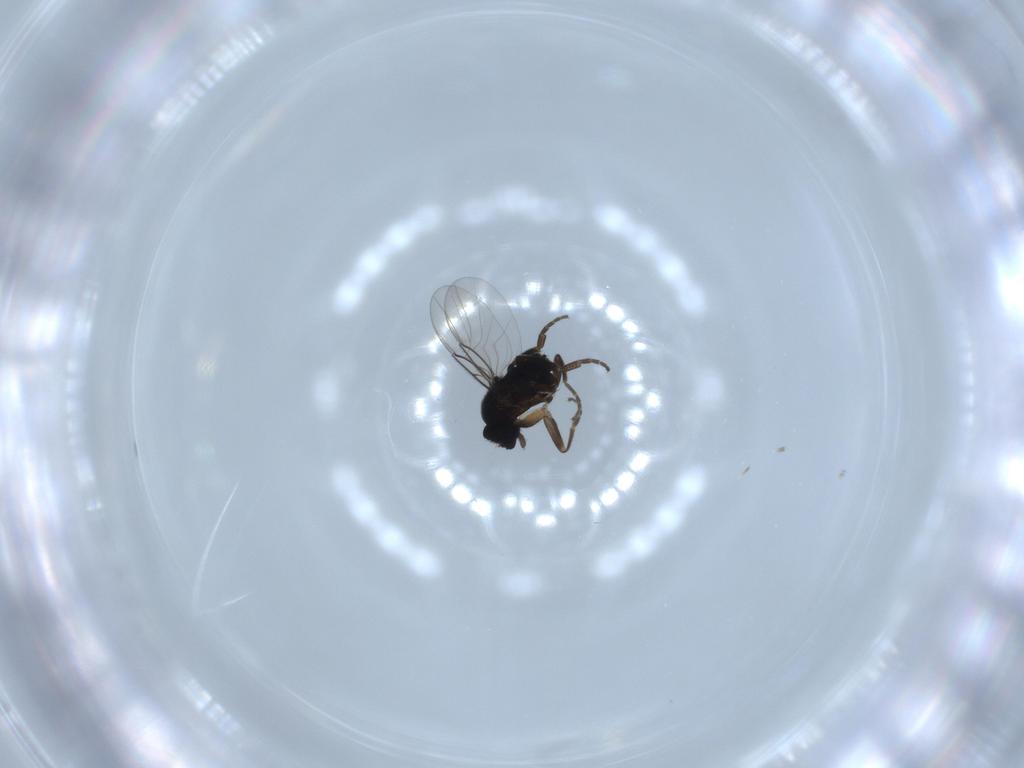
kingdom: Animalia
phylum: Arthropoda
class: Insecta
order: Diptera
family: Phoridae
